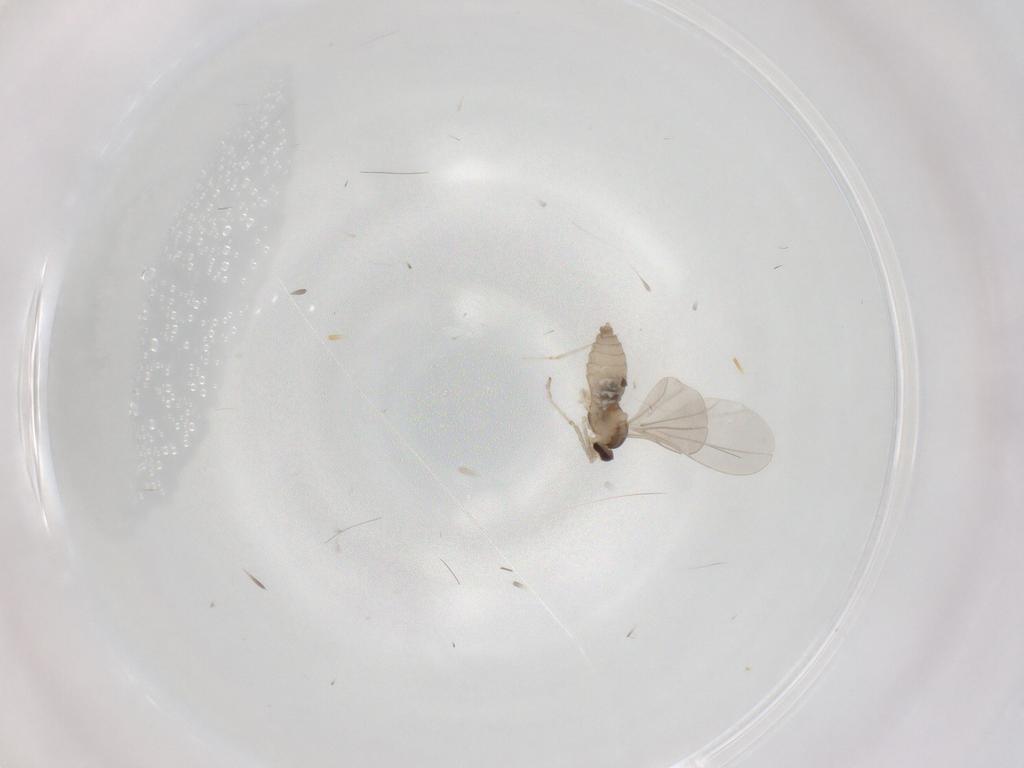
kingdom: Animalia
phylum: Arthropoda
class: Insecta
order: Diptera
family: Cecidomyiidae
